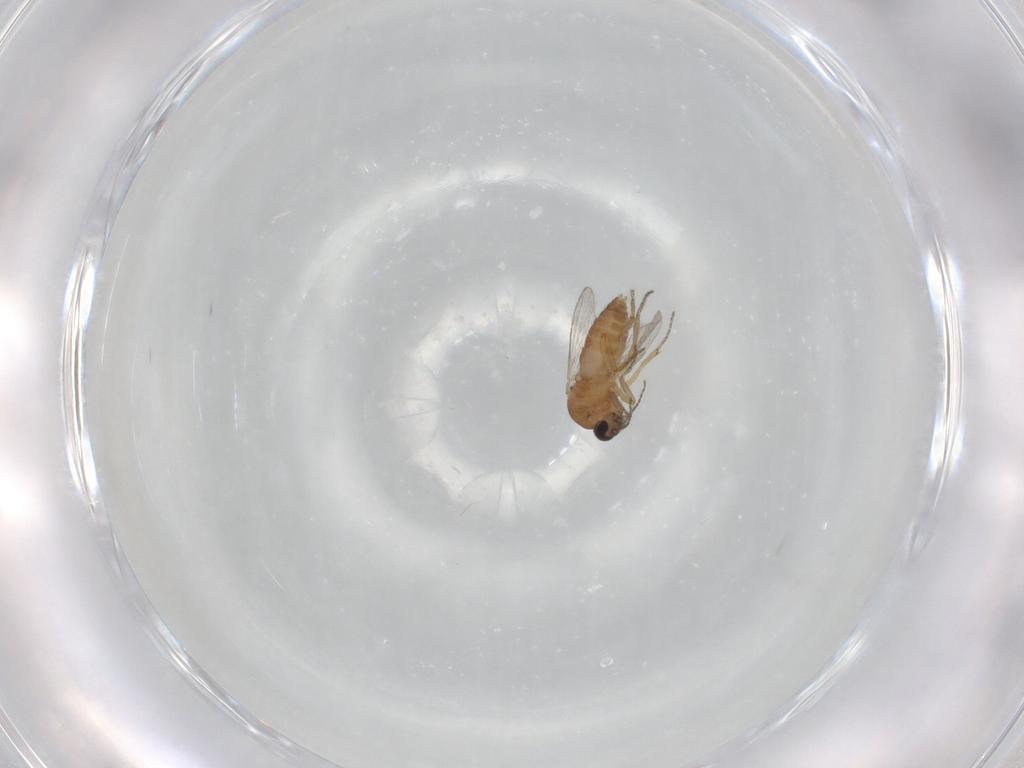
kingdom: Animalia
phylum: Arthropoda
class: Insecta
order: Diptera
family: Ceratopogonidae
